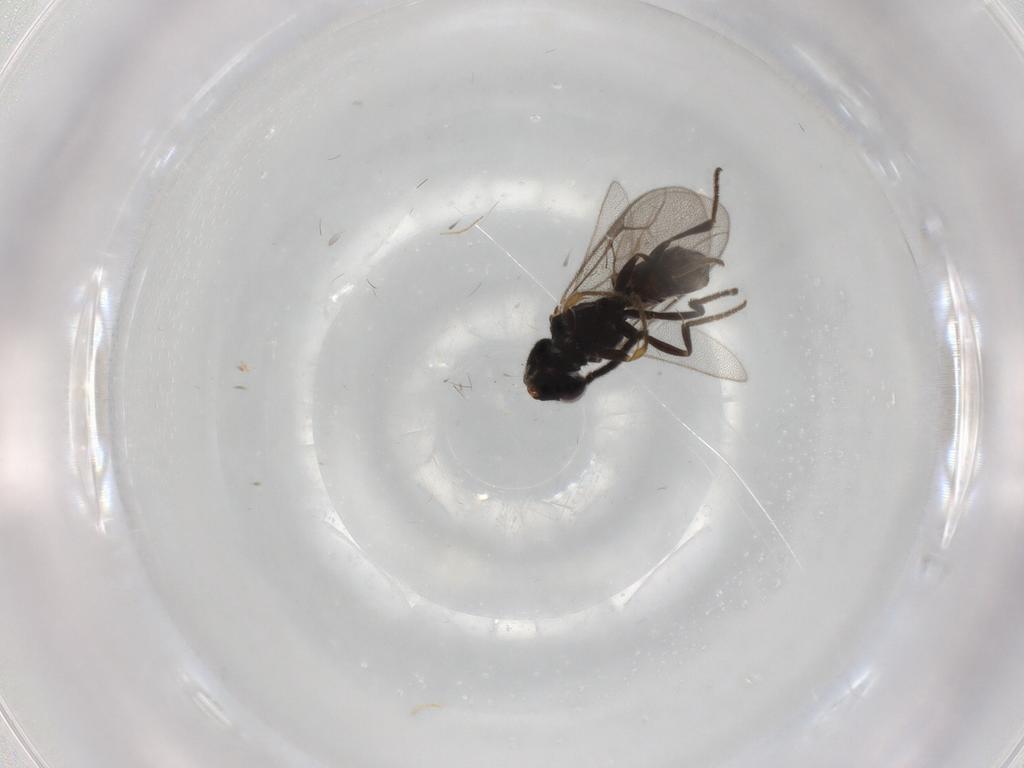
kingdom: Animalia
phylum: Arthropoda
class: Insecta
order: Hymenoptera
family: Dryinidae
